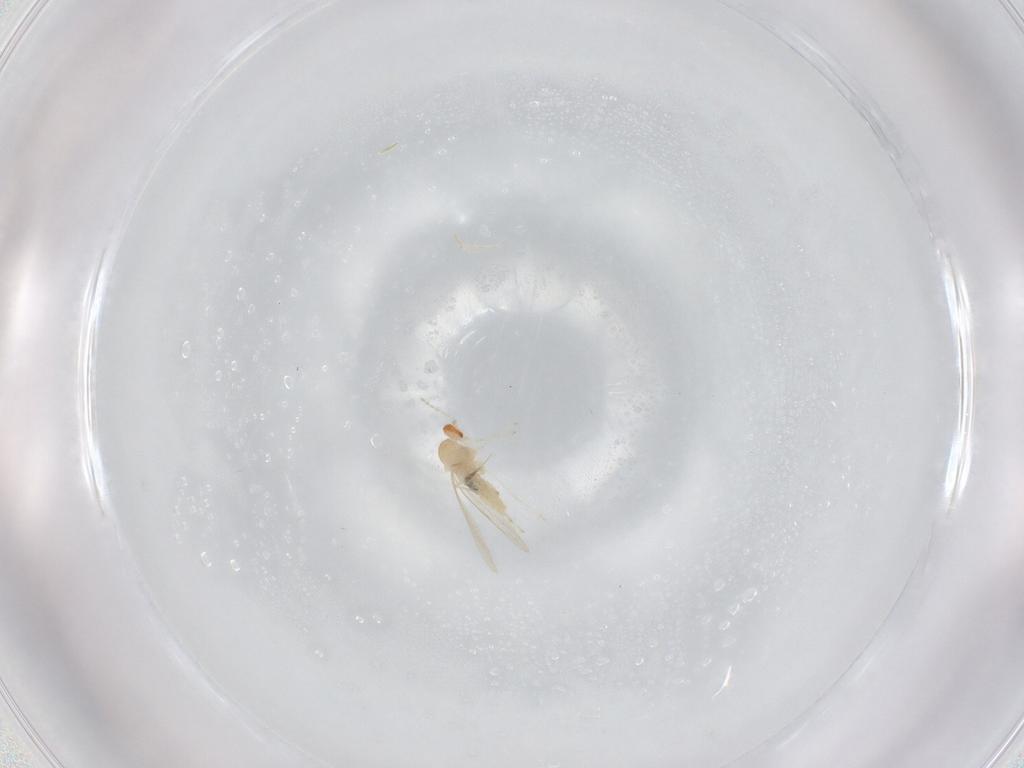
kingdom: Animalia
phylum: Arthropoda
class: Insecta
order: Diptera
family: Cecidomyiidae
